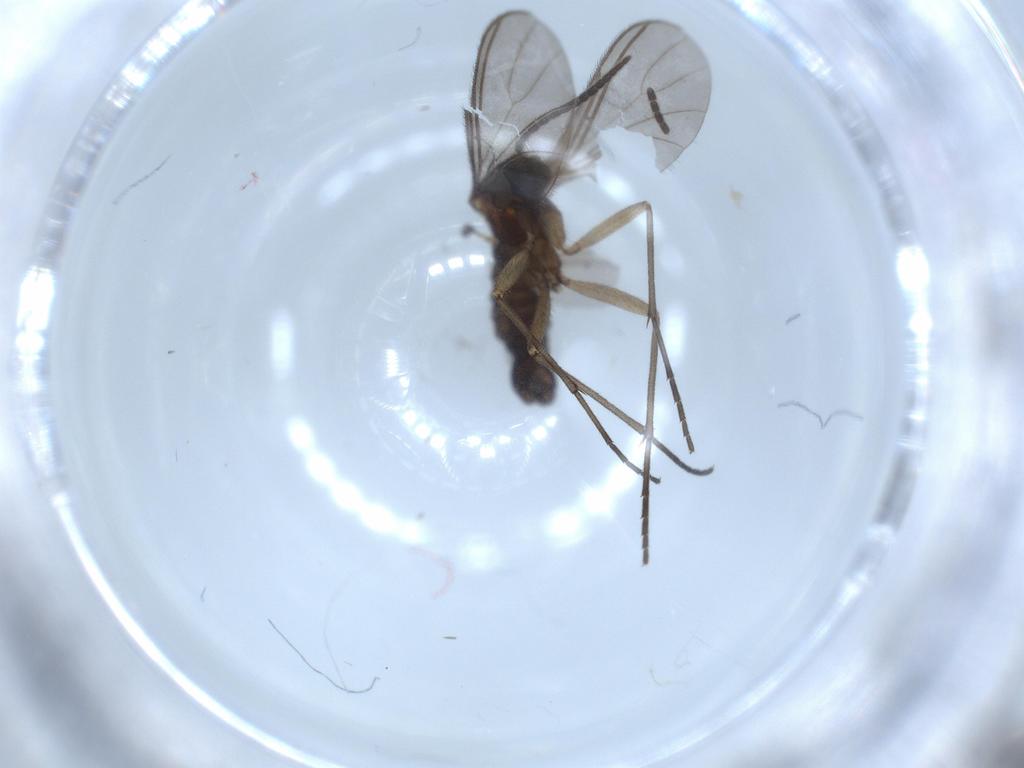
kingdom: Animalia
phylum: Arthropoda
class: Insecta
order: Diptera
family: Sciaridae
